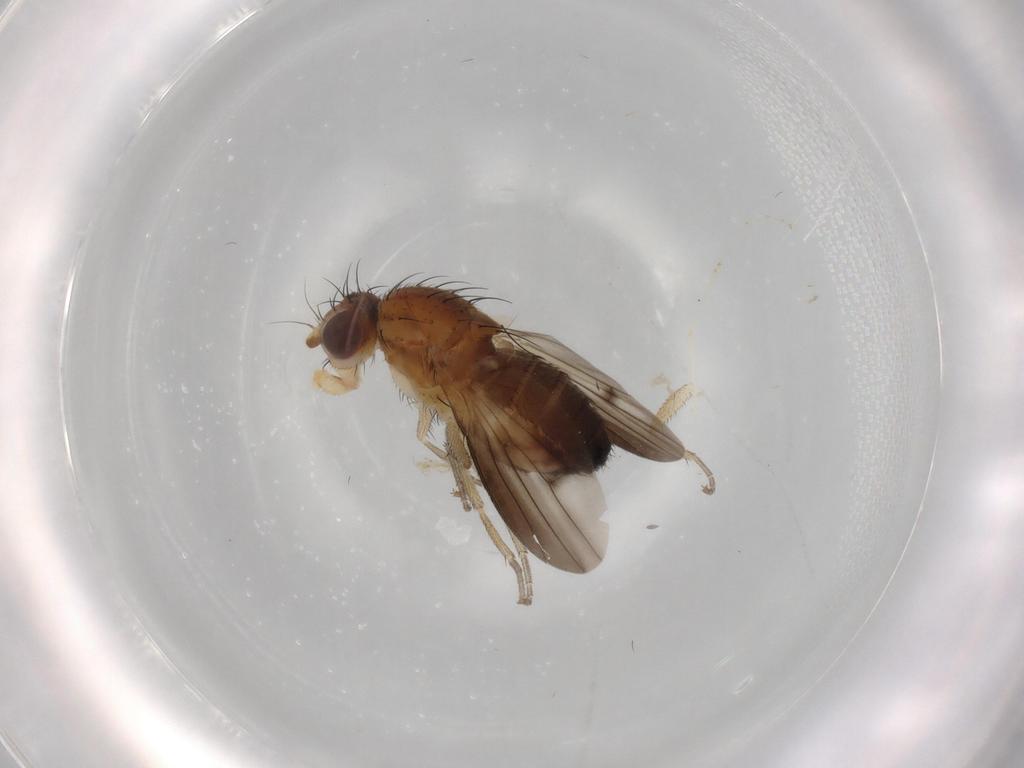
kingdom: Animalia
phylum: Arthropoda
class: Insecta
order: Diptera
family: Heleomyzidae
